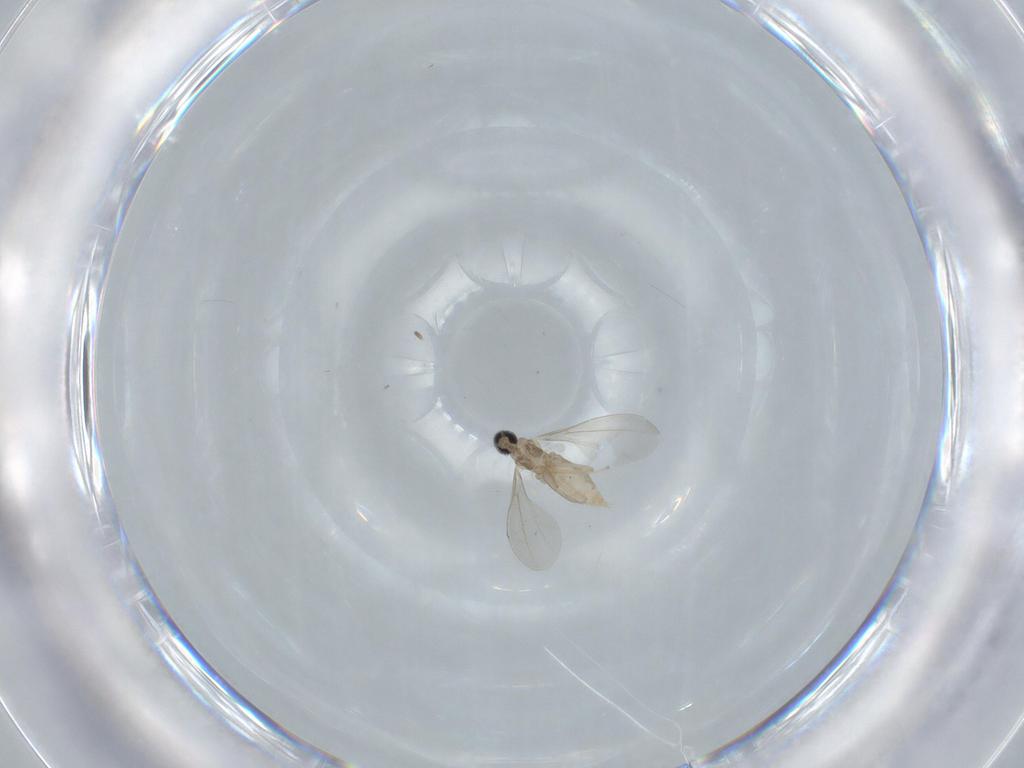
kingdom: Animalia
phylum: Arthropoda
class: Insecta
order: Diptera
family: Cecidomyiidae
